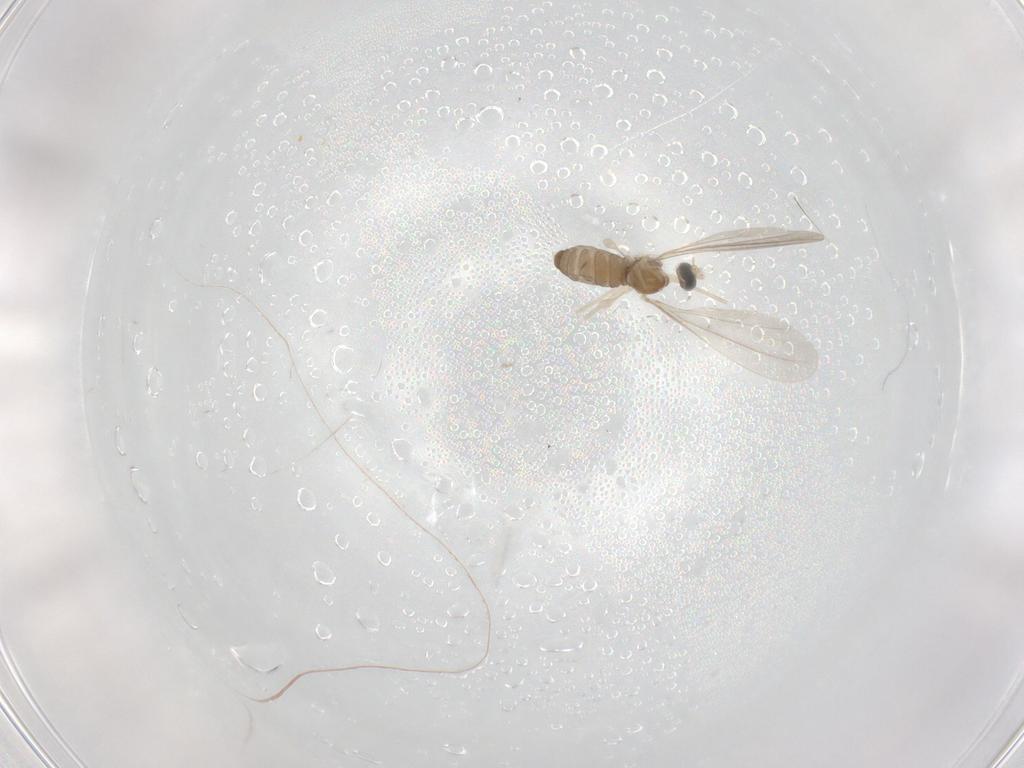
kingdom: Animalia
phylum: Arthropoda
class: Insecta
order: Diptera
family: Cecidomyiidae
